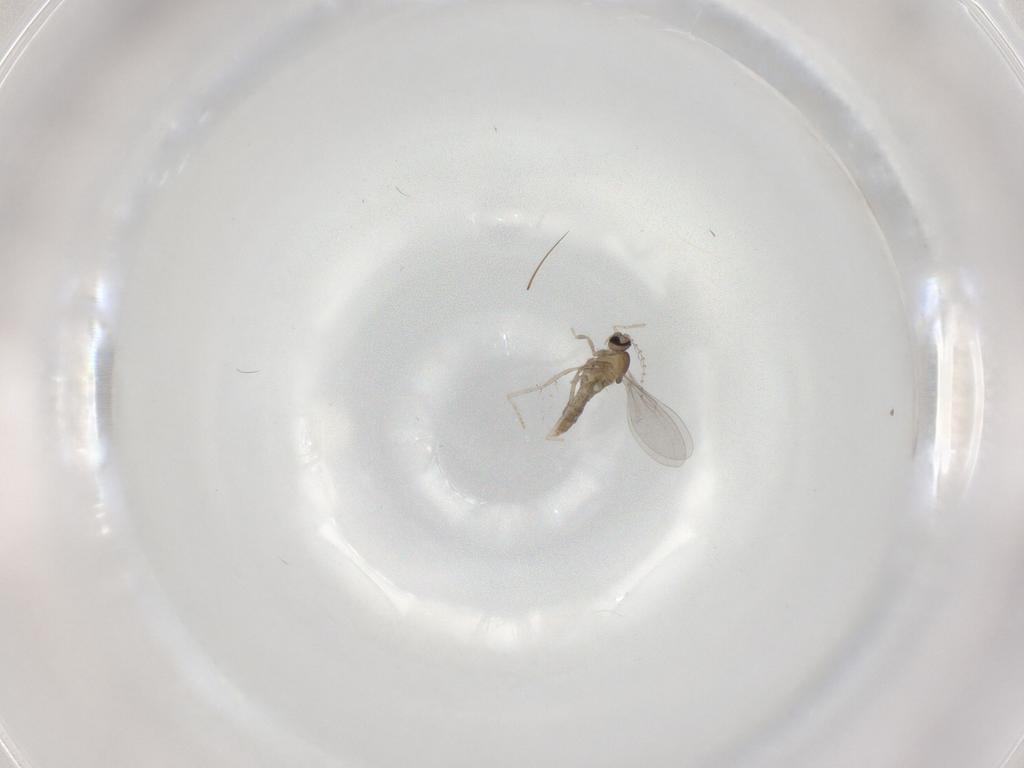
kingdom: Animalia
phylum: Arthropoda
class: Insecta
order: Diptera
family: Cecidomyiidae
